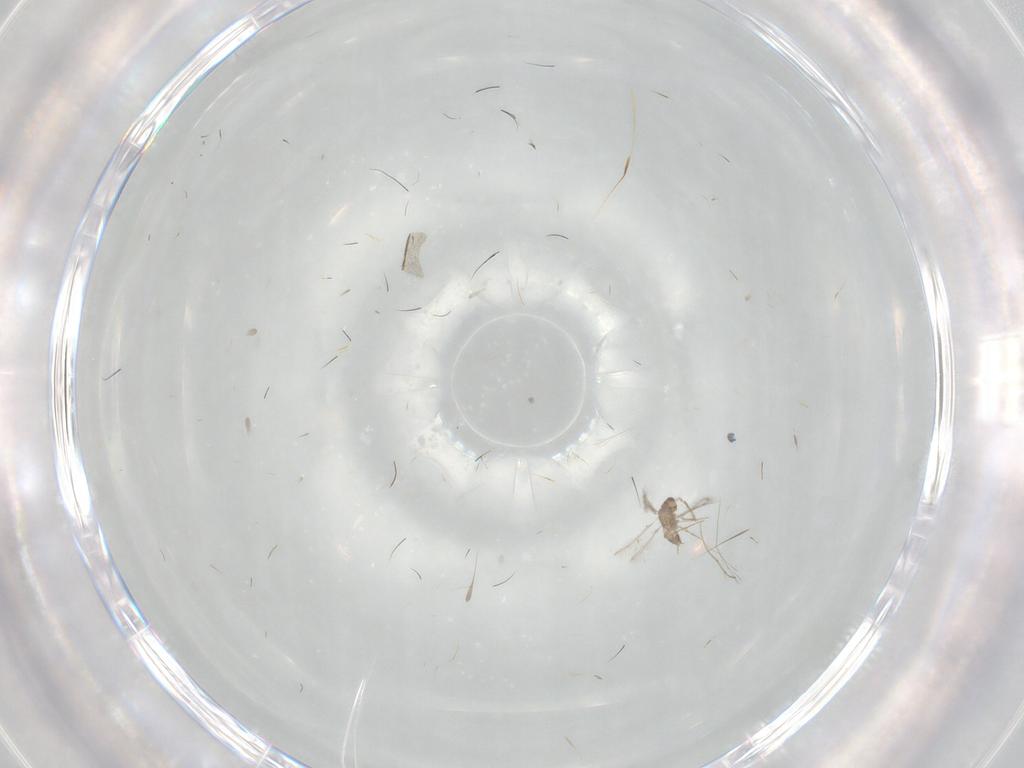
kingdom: Animalia
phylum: Arthropoda
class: Insecta
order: Hymenoptera
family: Mymaridae
